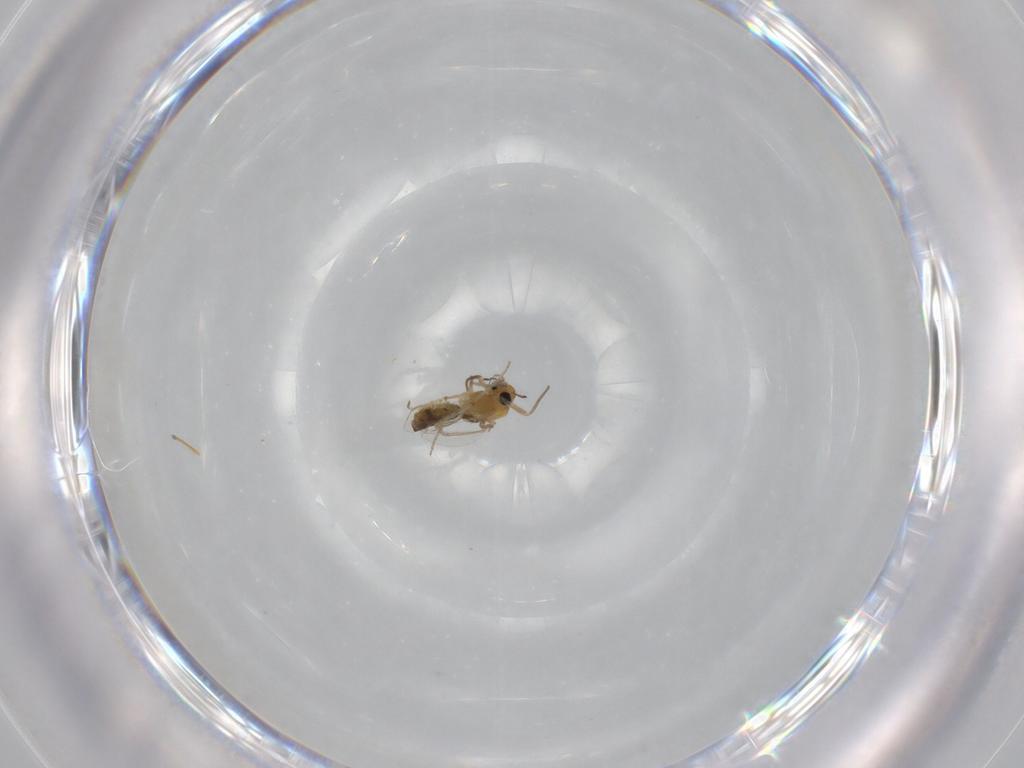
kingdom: Animalia
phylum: Arthropoda
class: Insecta
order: Diptera
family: Chironomidae
